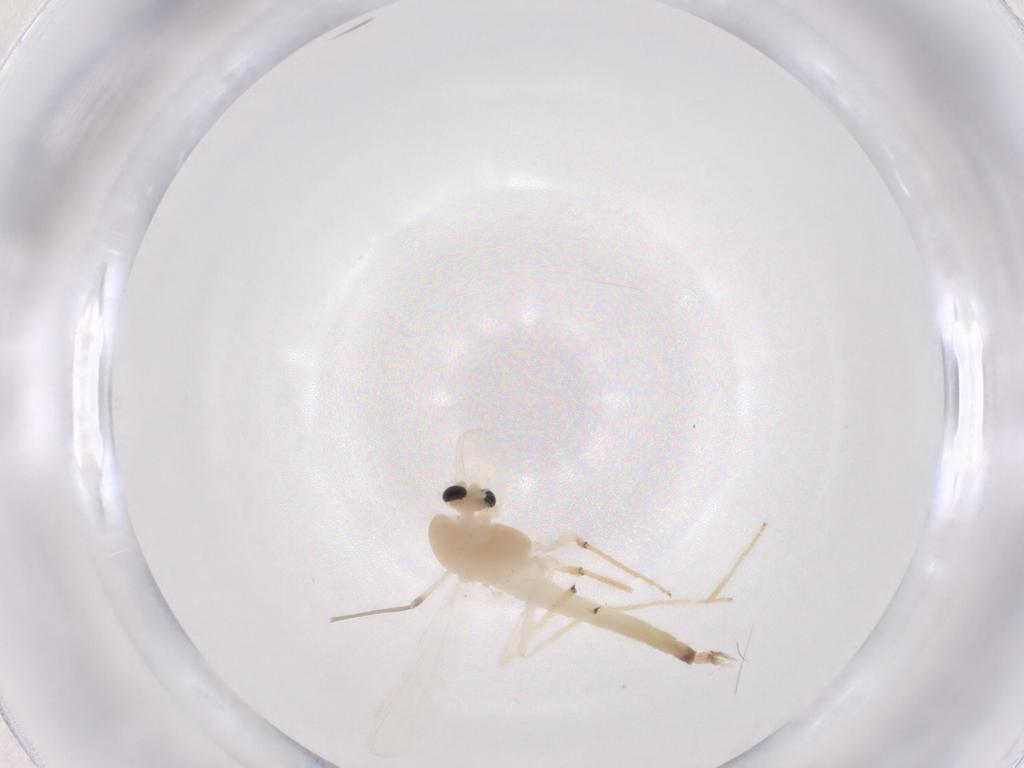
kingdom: Animalia
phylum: Arthropoda
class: Insecta
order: Diptera
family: Chironomidae
